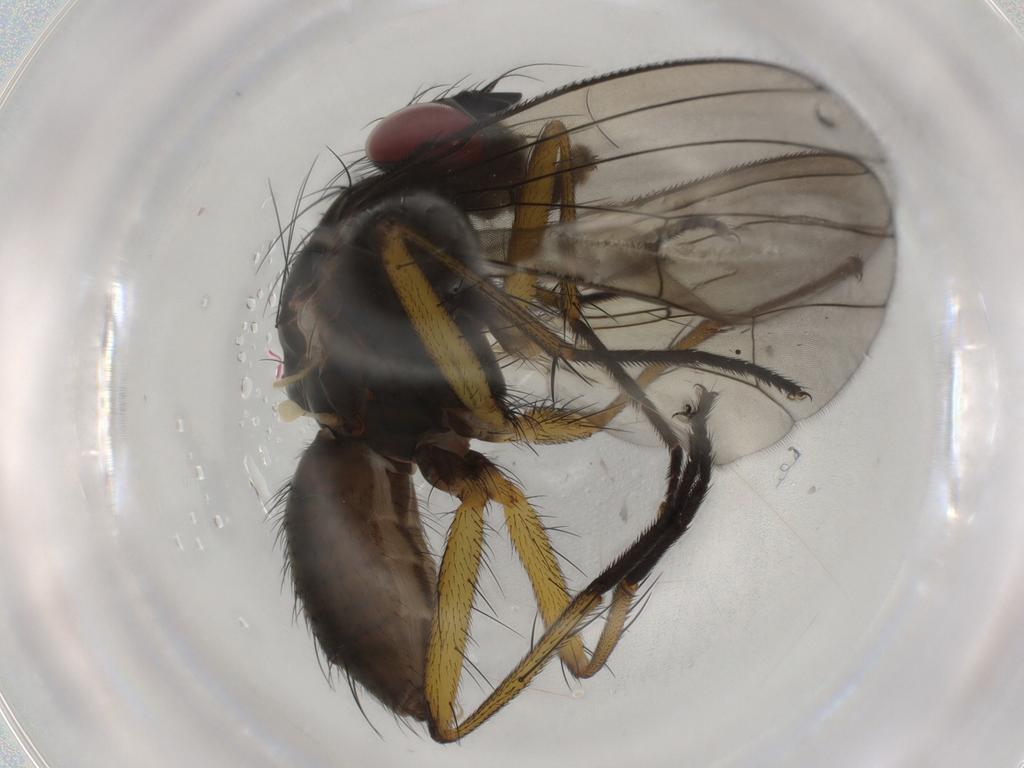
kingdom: Animalia
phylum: Arthropoda
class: Insecta
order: Diptera
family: Muscidae
